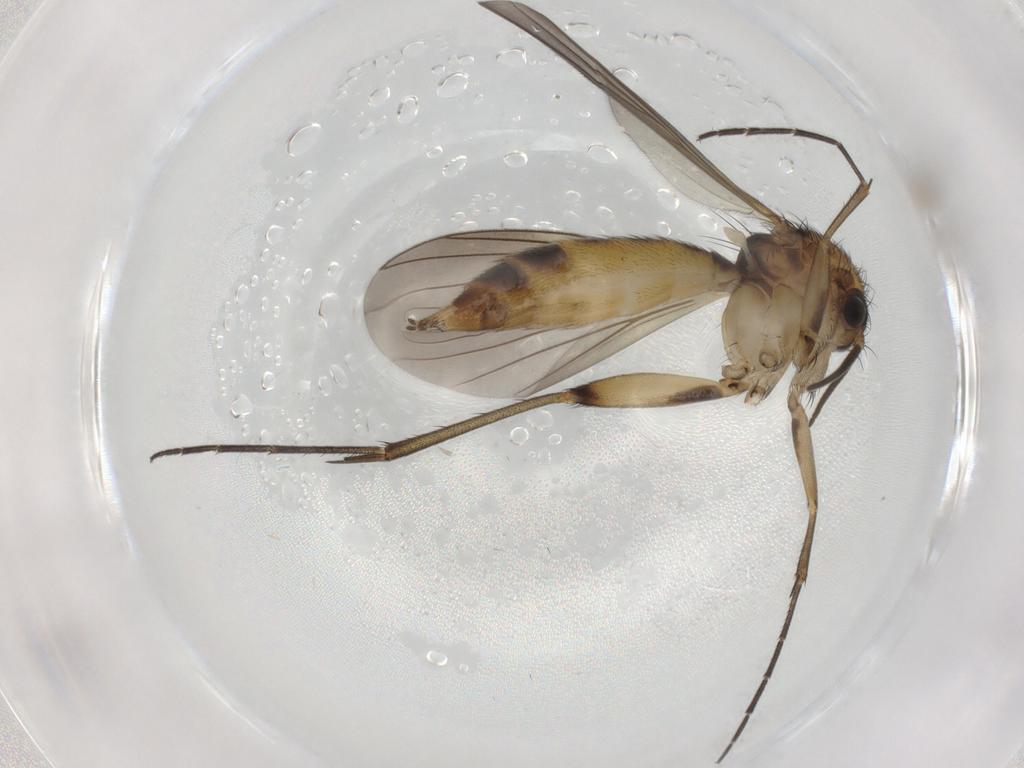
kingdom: Animalia
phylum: Arthropoda
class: Insecta
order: Diptera
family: Mycetophilidae
